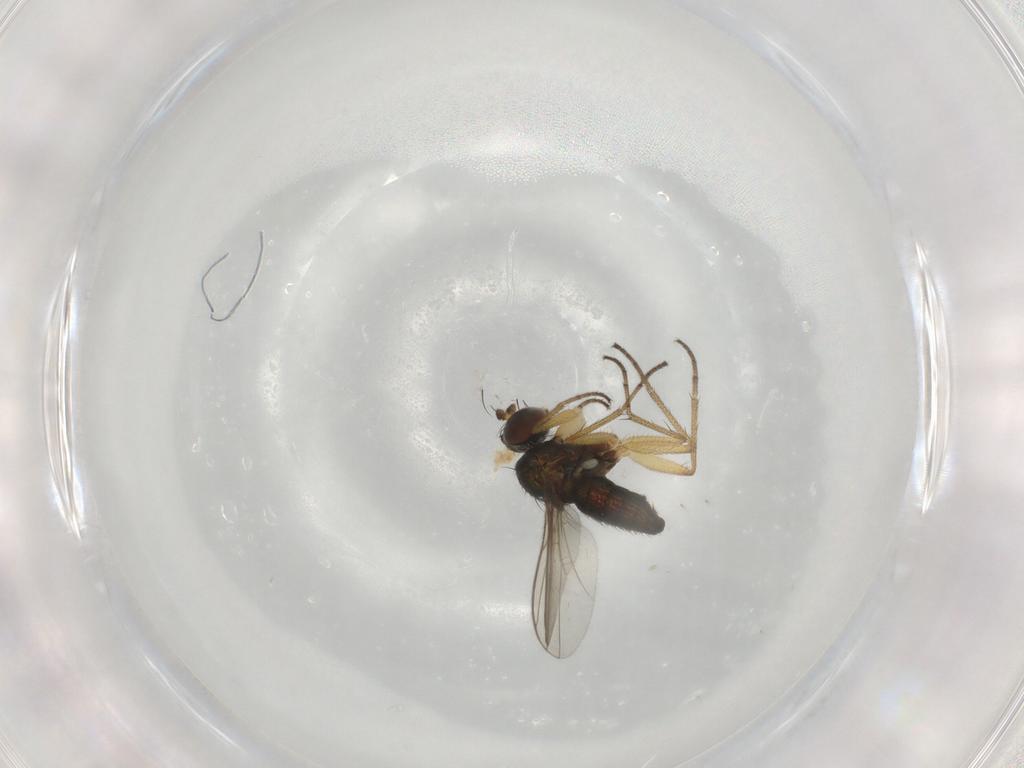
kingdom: Animalia
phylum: Arthropoda
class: Insecta
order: Diptera
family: Dolichopodidae
